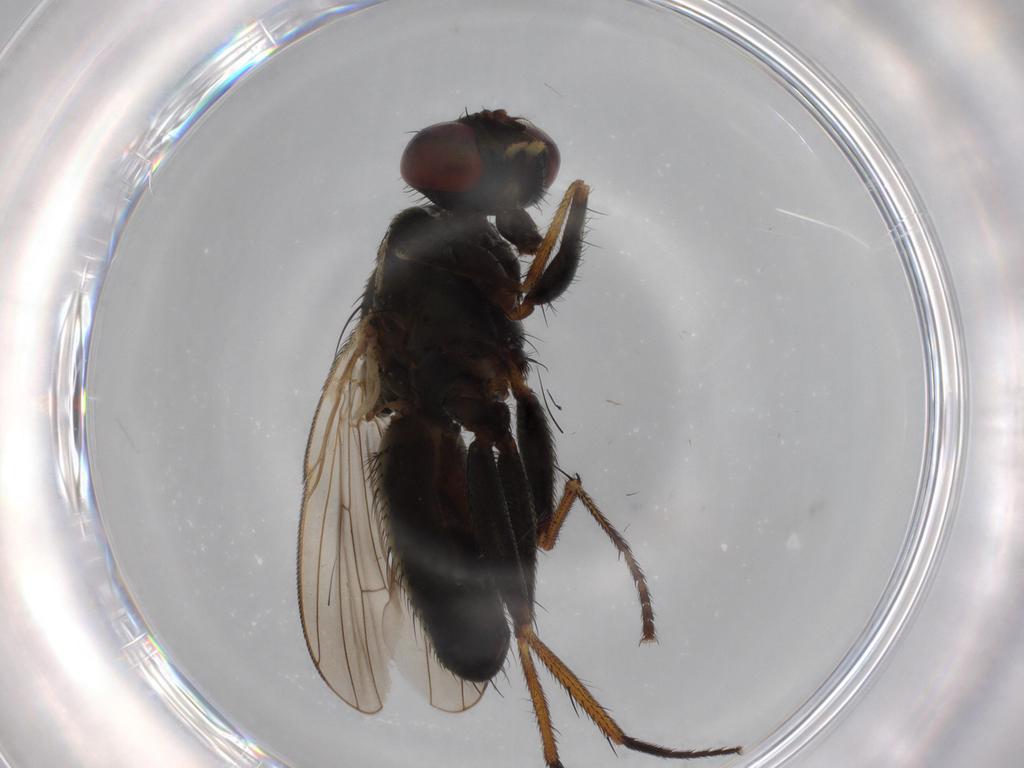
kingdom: Animalia
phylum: Arthropoda
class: Insecta
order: Diptera
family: Muscidae
